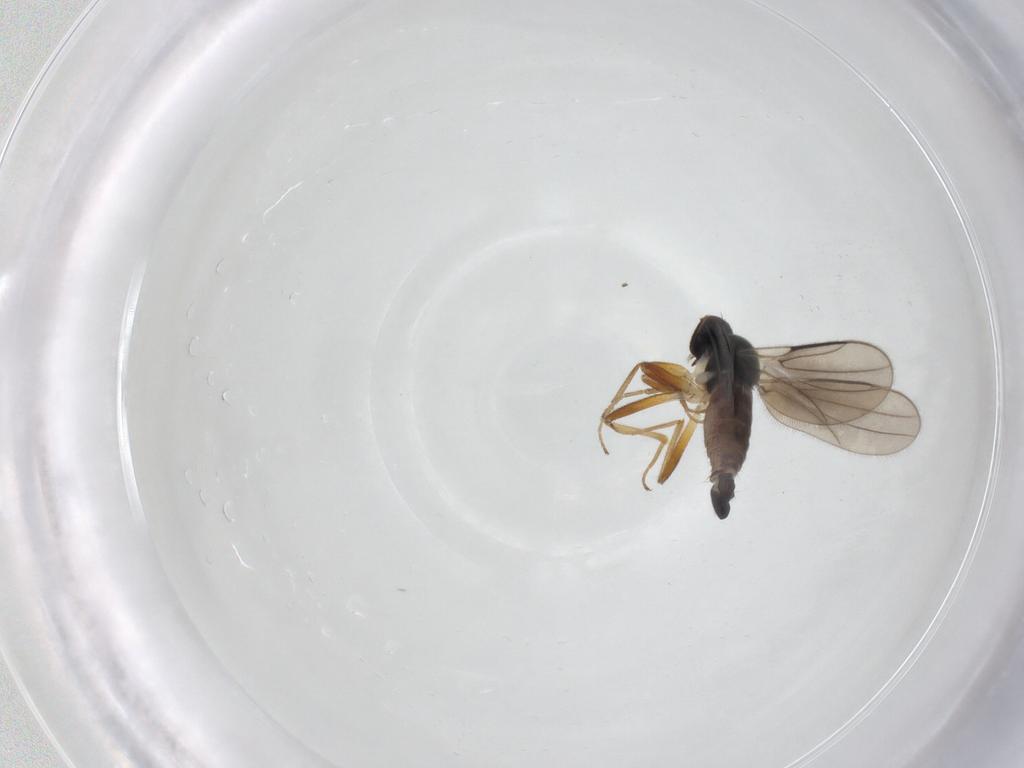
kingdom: Animalia
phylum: Arthropoda
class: Insecta
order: Diptera
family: Hybotidae
